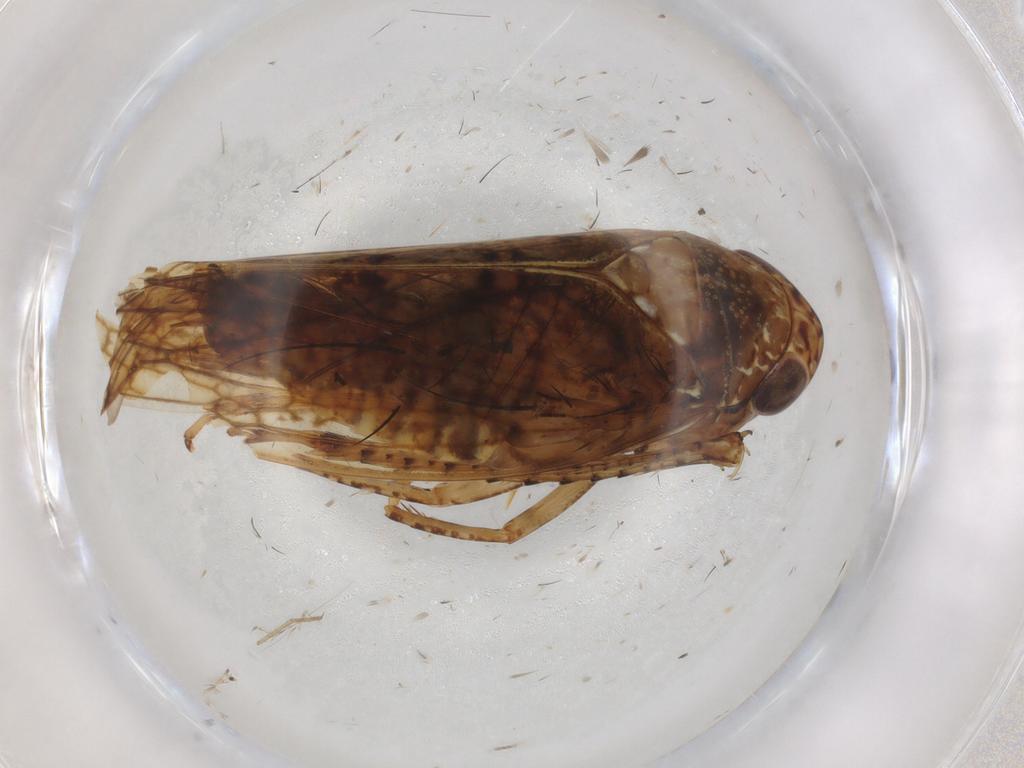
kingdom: Animalia
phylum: Arthropoda
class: Insecta
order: Hemiptera
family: Cicadellidae
